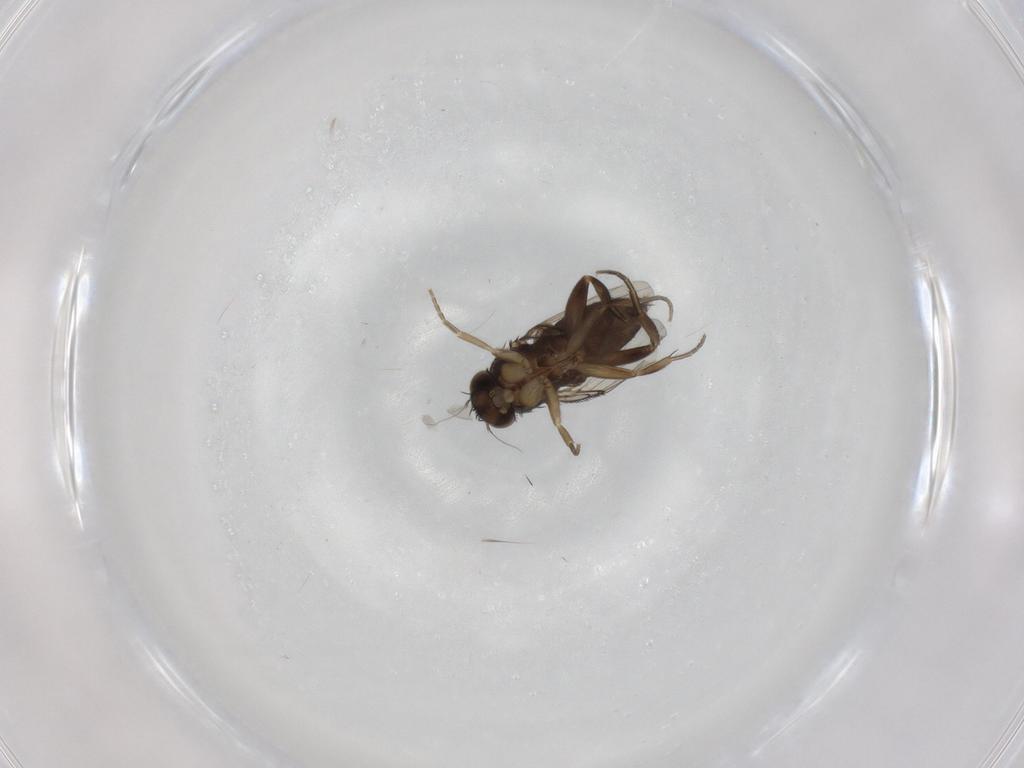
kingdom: Animalia
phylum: Arthropoda
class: Insecta
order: Diptera
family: Phoridae
